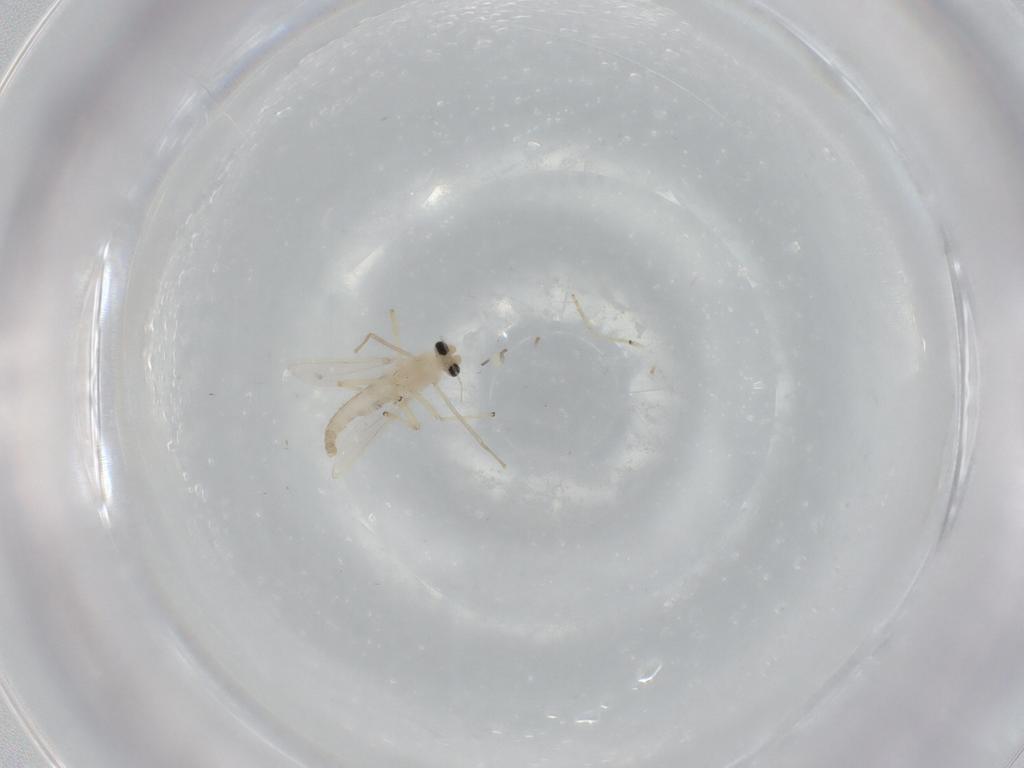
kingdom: Animalia
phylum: Arthropoda
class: Insecta
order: Diptera
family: Chironomidae
